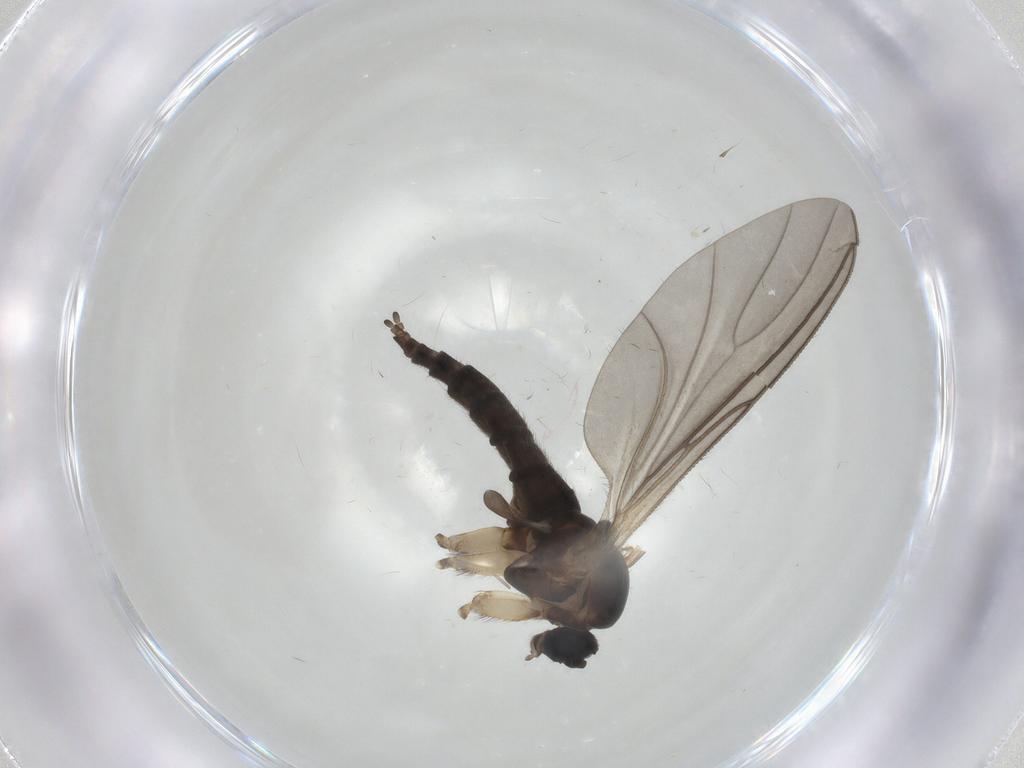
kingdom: Animalia
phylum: Arthropoda
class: Insecta
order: Diptera
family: Sciaridae
